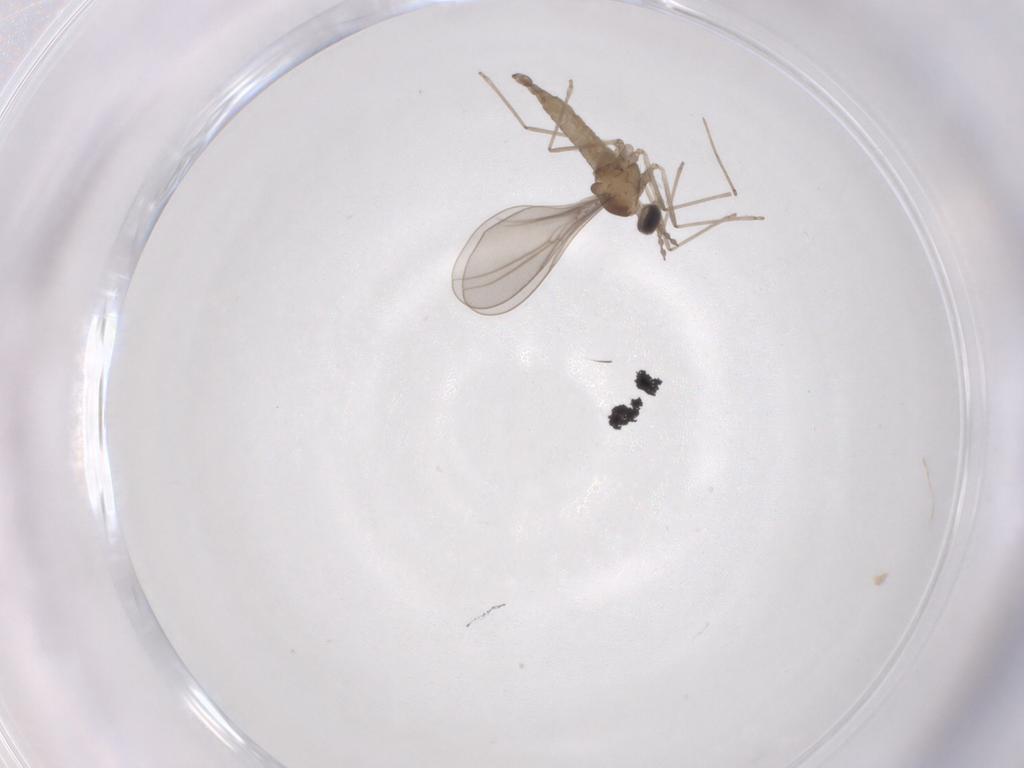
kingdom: Animalia
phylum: Arthropoda
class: Insecta
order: Diptera
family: Cecidomyiidae
